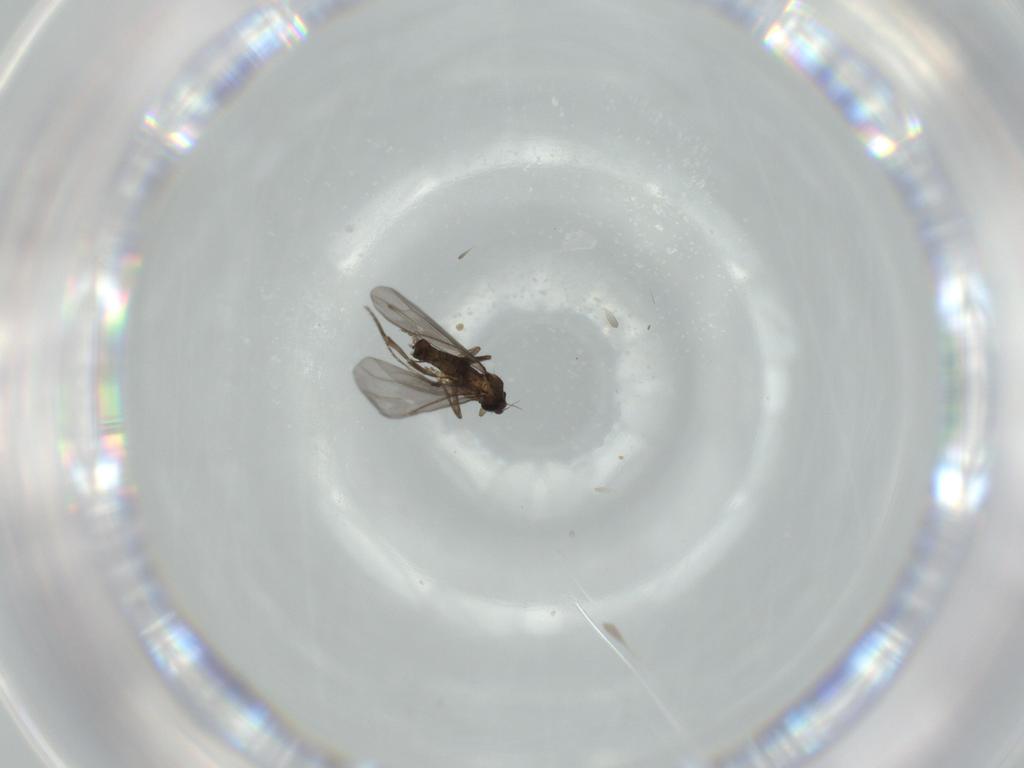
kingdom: Animalia
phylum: Arthropoda
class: Insecta
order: Diptera
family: Phoridae
